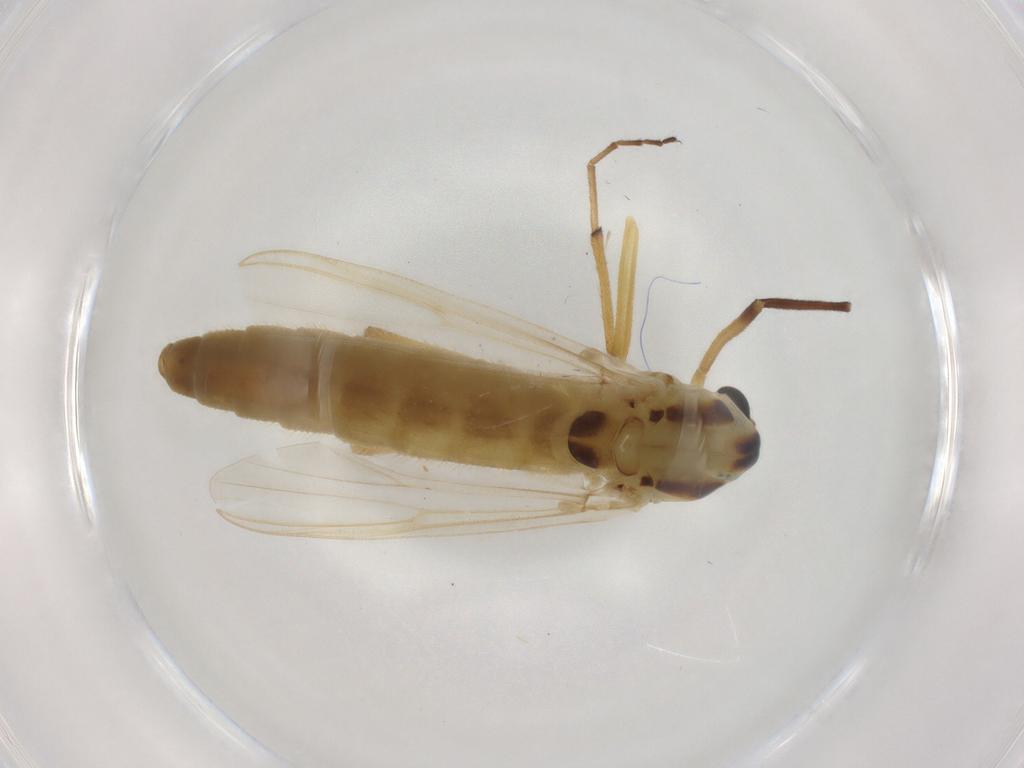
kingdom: Animalia
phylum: Arthropoda
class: Insecta
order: Diptera
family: Chironomidae
